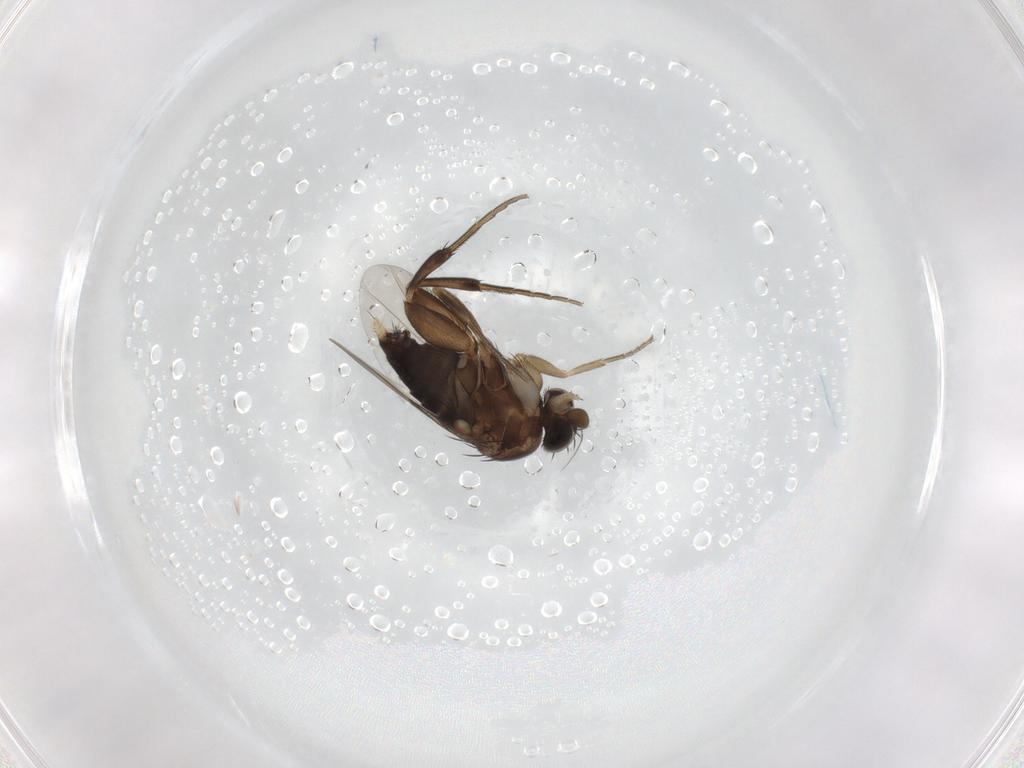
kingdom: Animalia
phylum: Arthropoda
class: Insecta
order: Diptera
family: Phoridae
